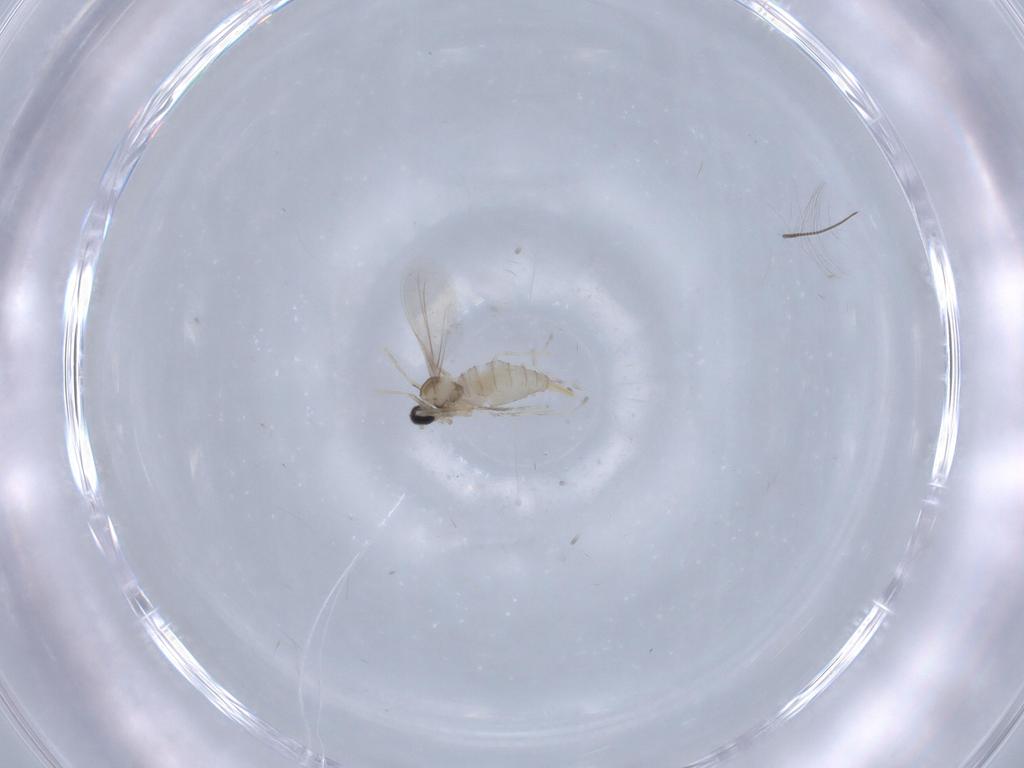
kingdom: Animalia
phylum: Arthropoda
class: Insecta
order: Diptera
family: Cecidomyiidae
